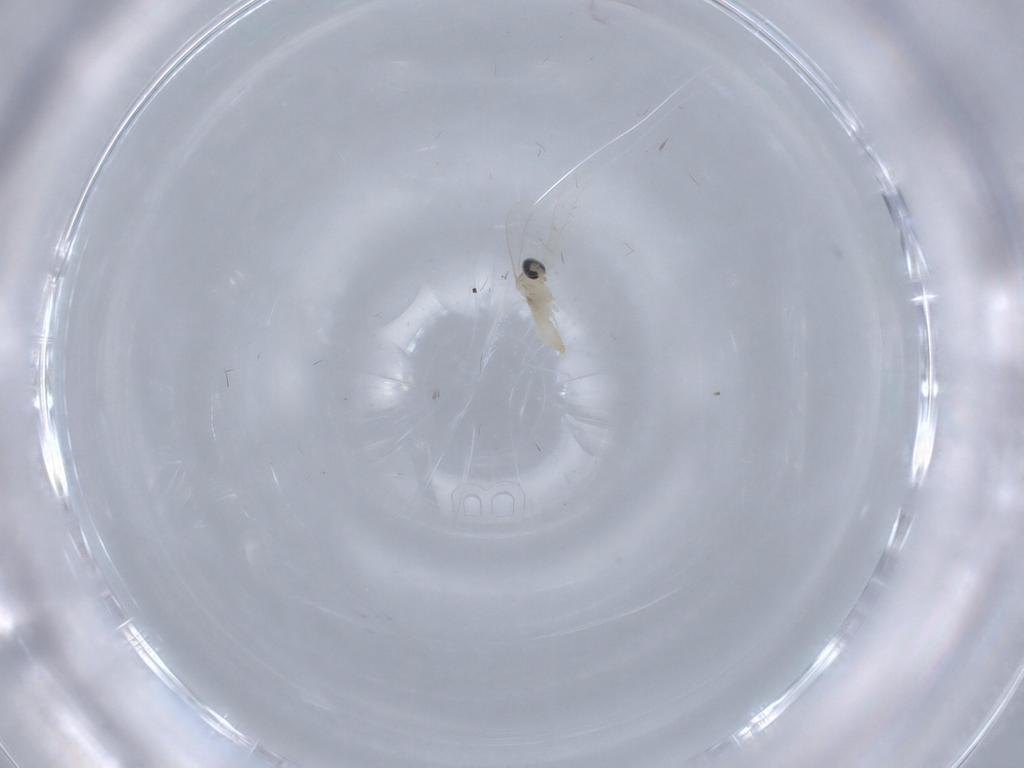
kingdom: Animalia
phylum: Arthropoda
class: Insecta
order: Diptera
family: Cecidomyiidae
